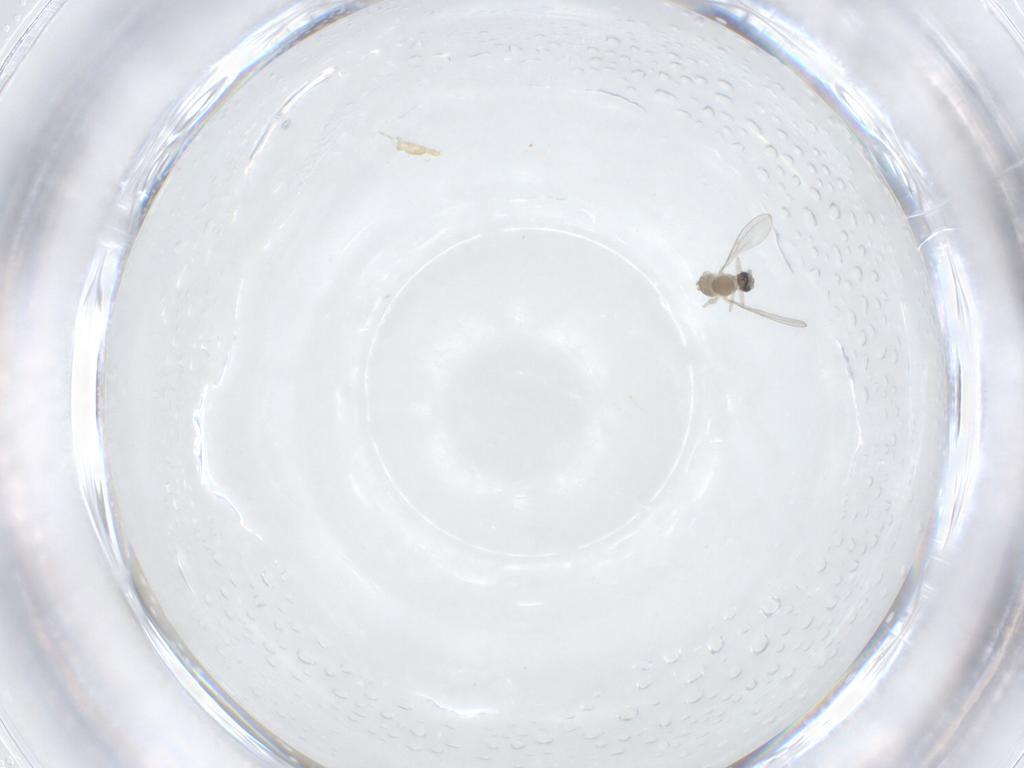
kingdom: Animalia
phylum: Arthropoda
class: Insecta
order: Diptera
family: Cecidomyiidae
